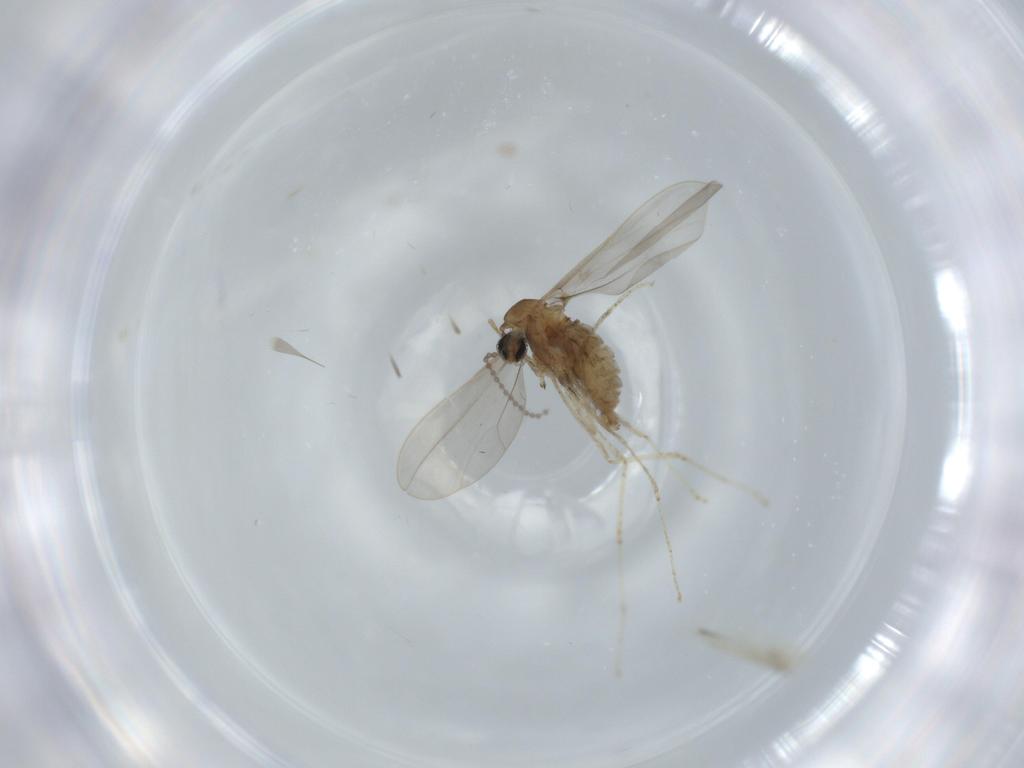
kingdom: Animalia
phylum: Arthropoda
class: Insecta
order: Diptera
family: Cecidomyiidae
